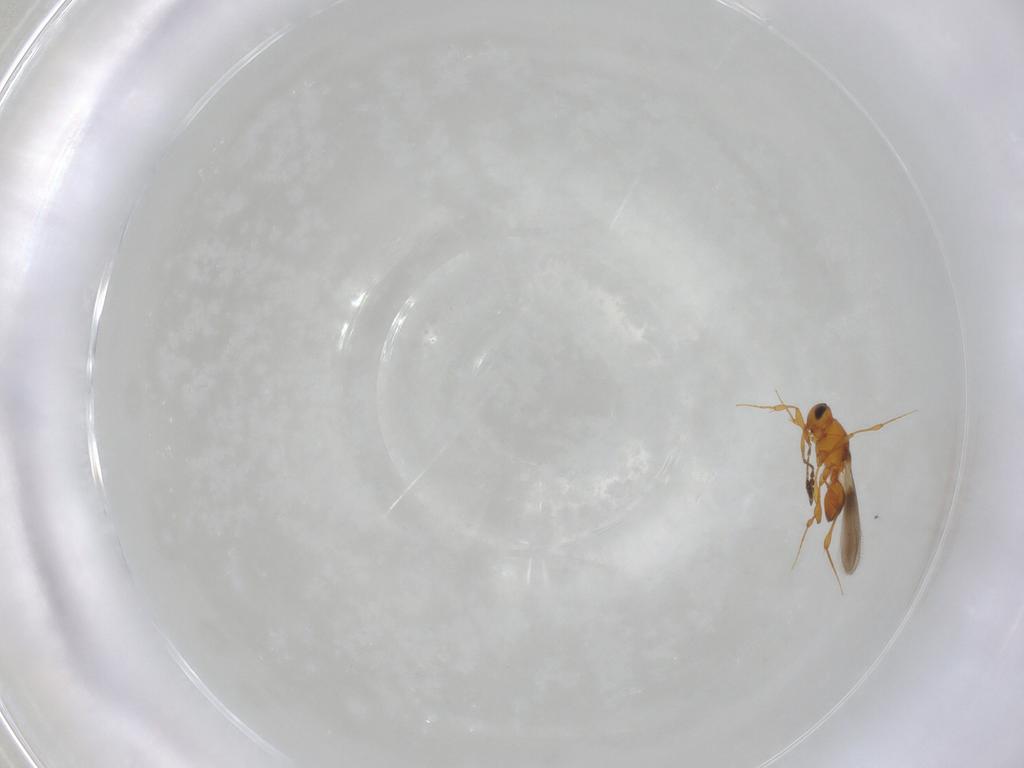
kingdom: Animalia
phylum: Arthropoda
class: Insecta
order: Hymenoptera
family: Platygastridae
